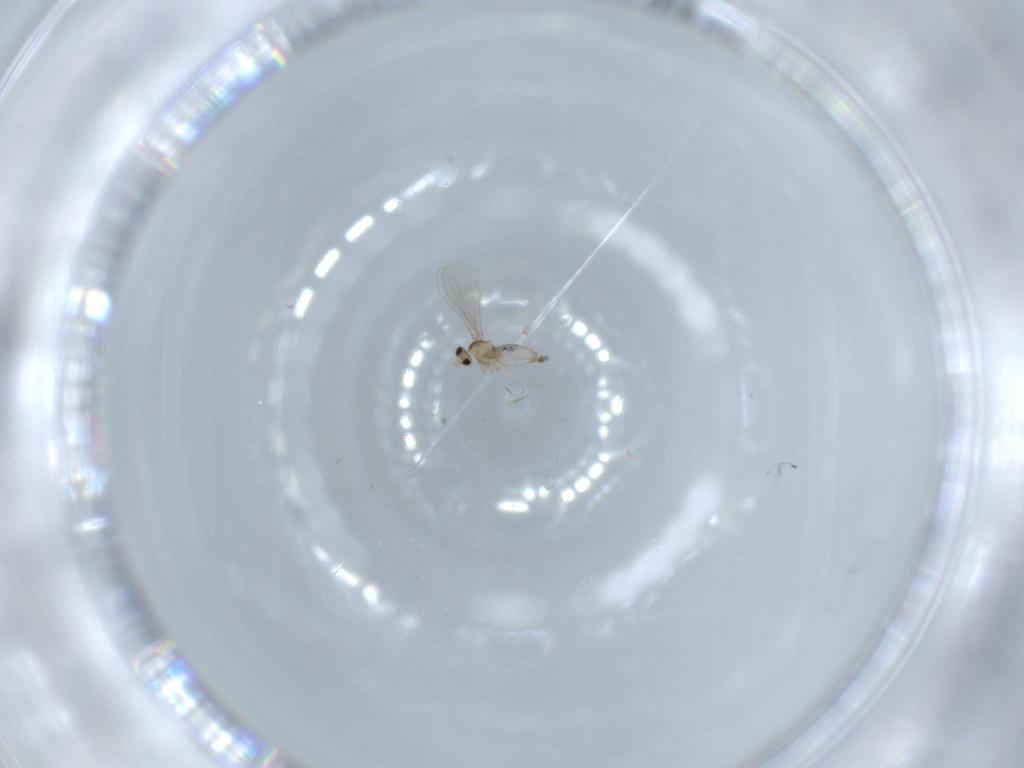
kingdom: Animalia
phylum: Arthropoda
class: Insecta
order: Diptera
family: Cecidomyiidae
